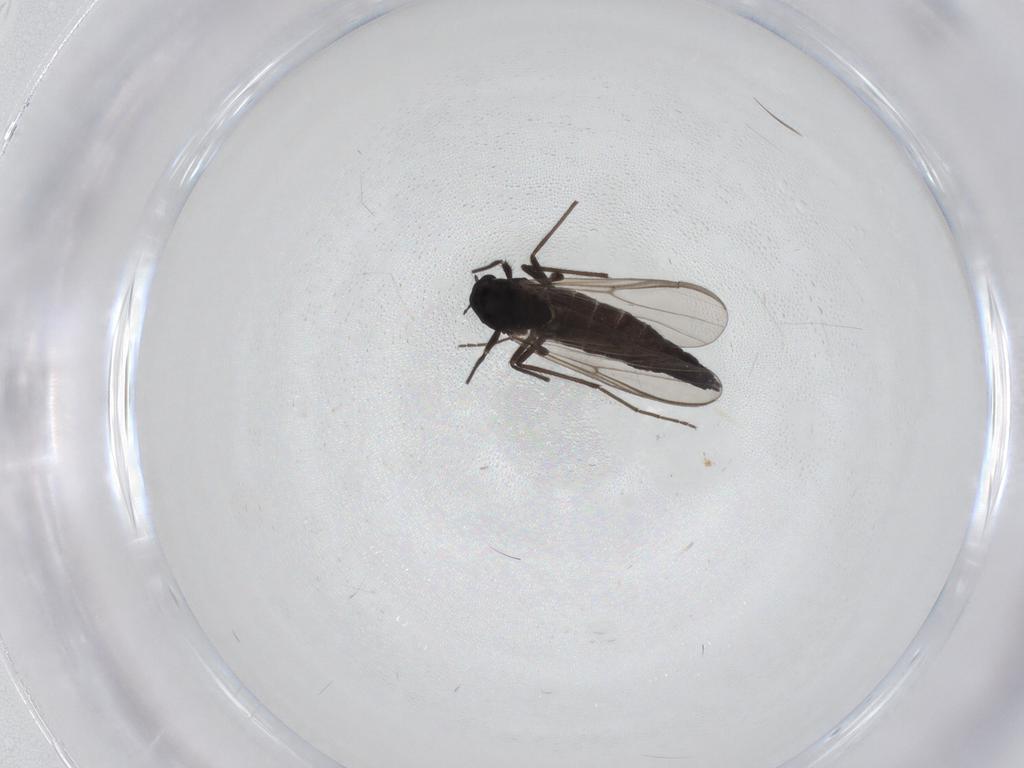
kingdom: Animalia
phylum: Arthropoda
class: Insecta
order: Diptera
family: Chironomidae
